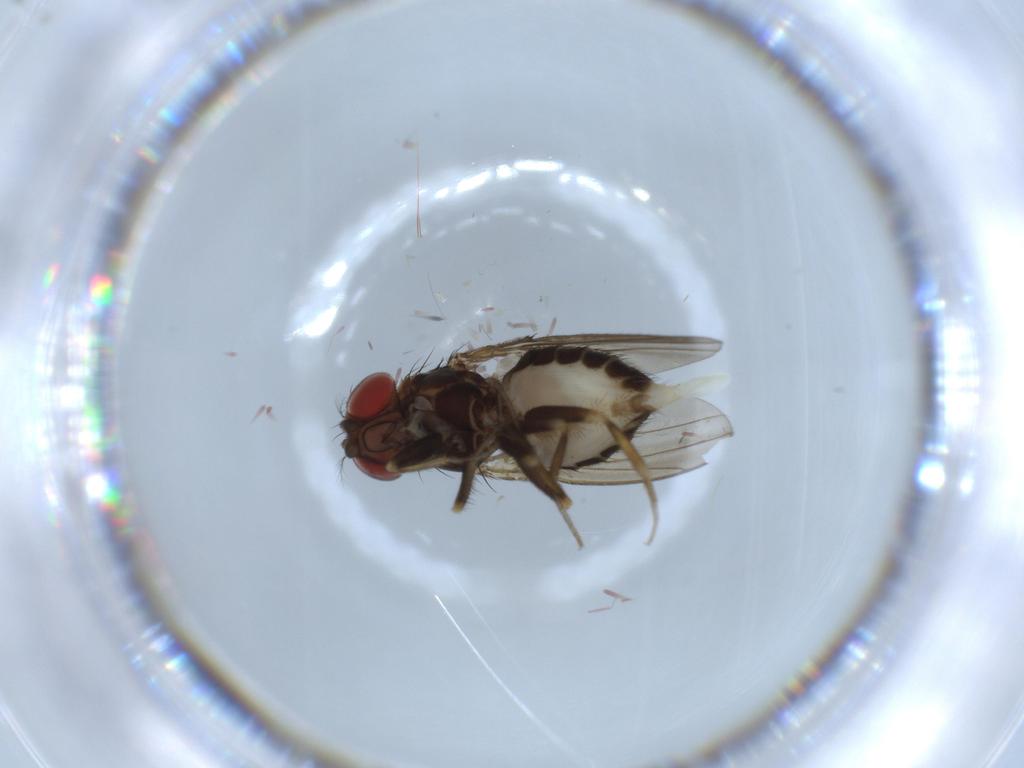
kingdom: Animalia
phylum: Arthropoda
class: Insecta
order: Diptera
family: Drosophilidae
